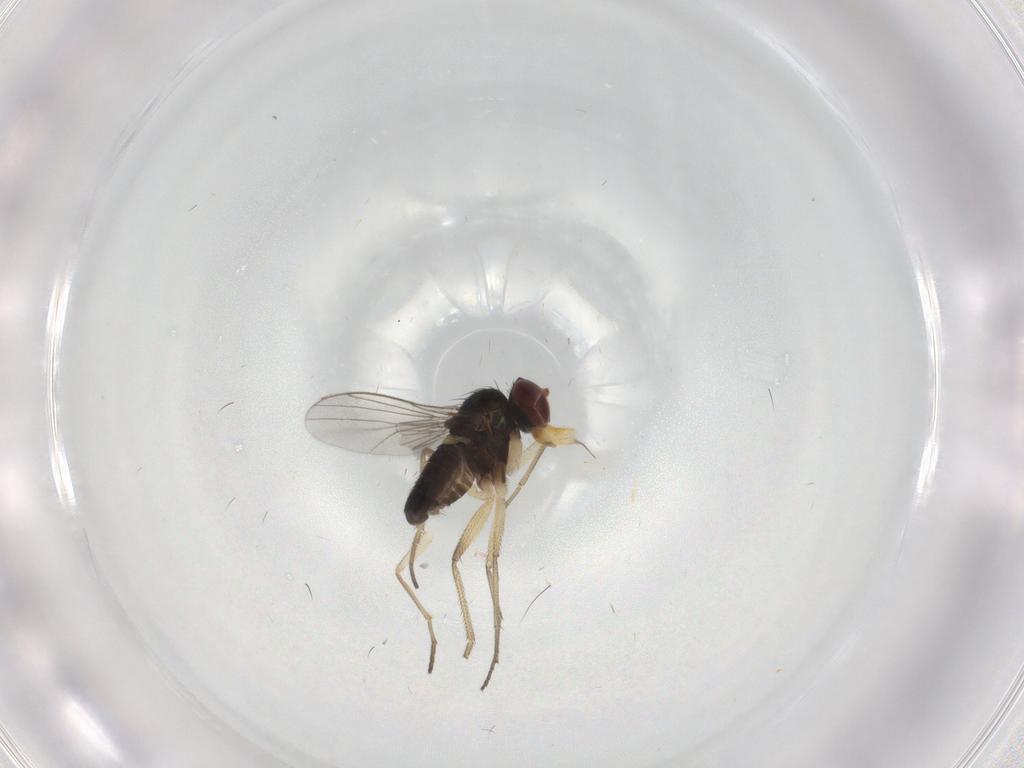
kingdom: Animalia
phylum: Arthropoda
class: Insecta
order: Diptera
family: Dolichopodidae
